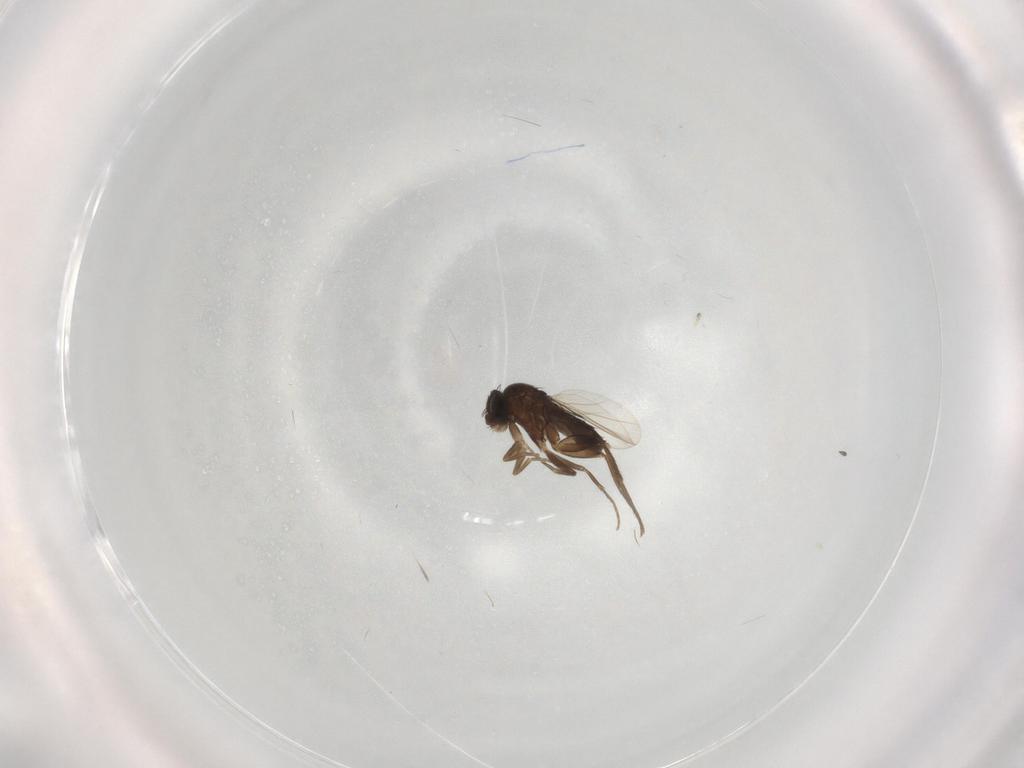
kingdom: Animalia
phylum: Arthropoda
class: Insecta
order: Diptera
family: Phoridae
